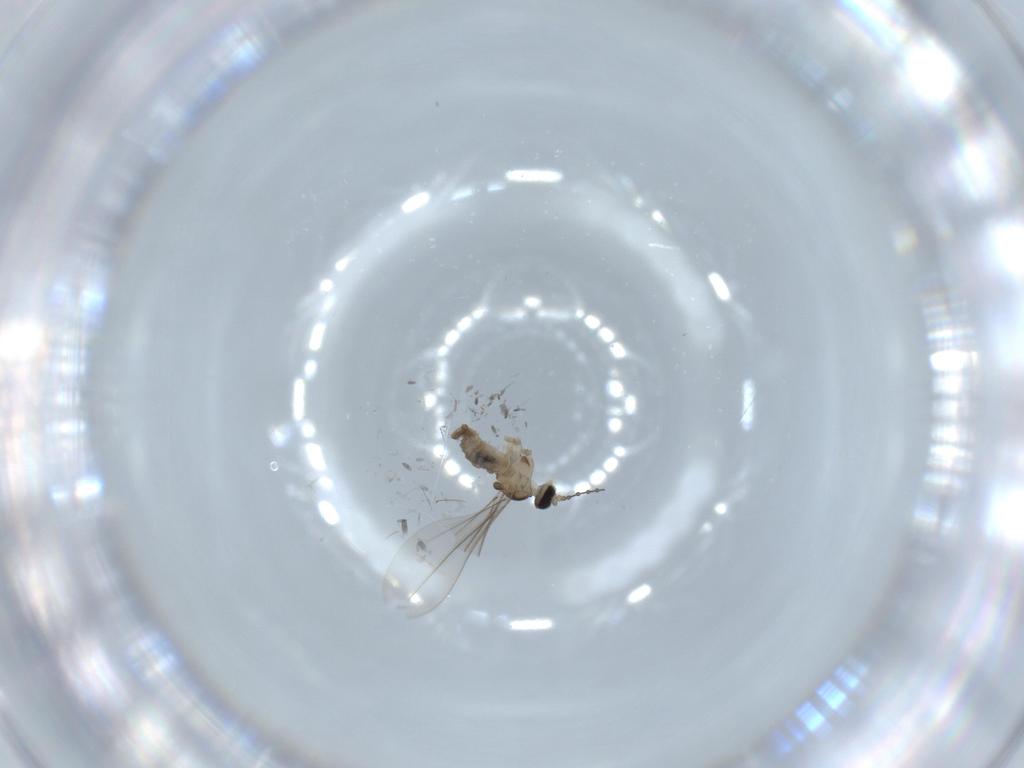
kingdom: Animalia
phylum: Arthropoda
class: Insecta
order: Diptera
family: Cecidomyiidae
